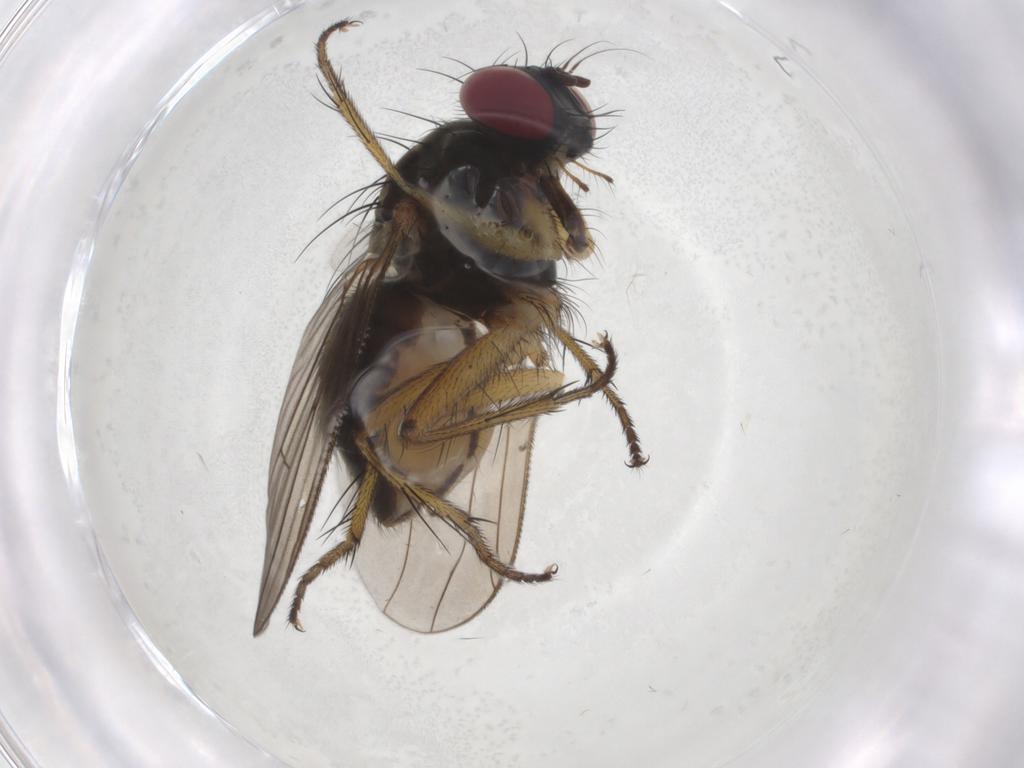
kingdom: Animalia
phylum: Arthropoda
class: Insecta
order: Diptera
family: Muscidae
